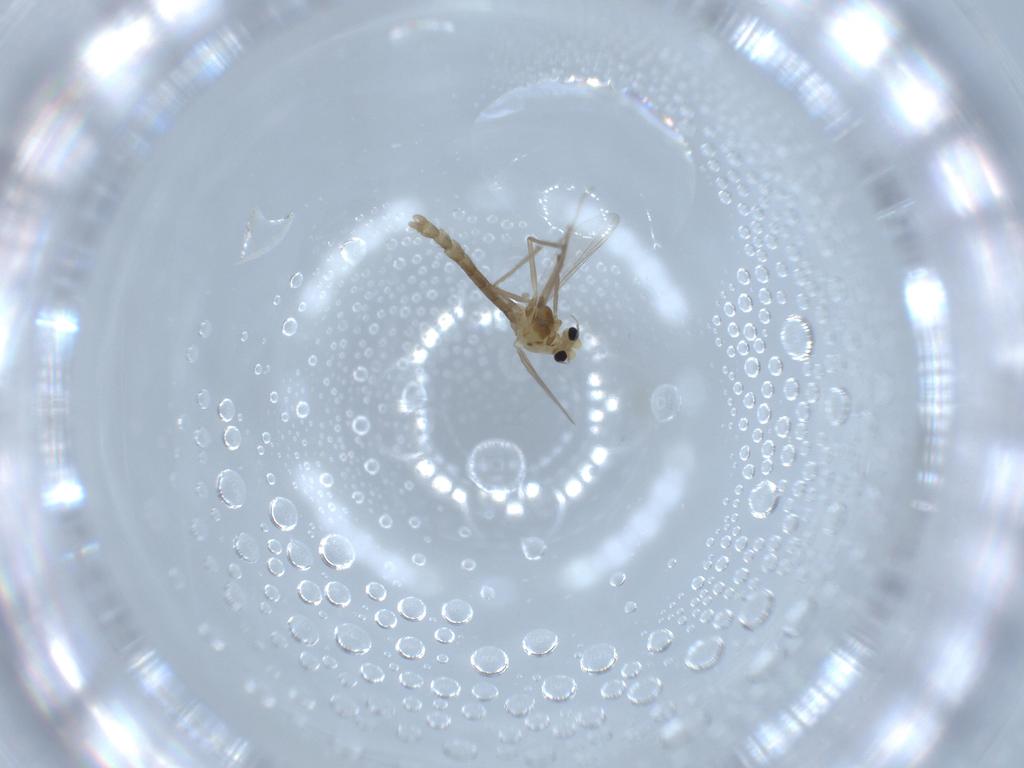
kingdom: Animalia
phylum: Arthropoda
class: Insecta
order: Diptera
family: Chironomidae
